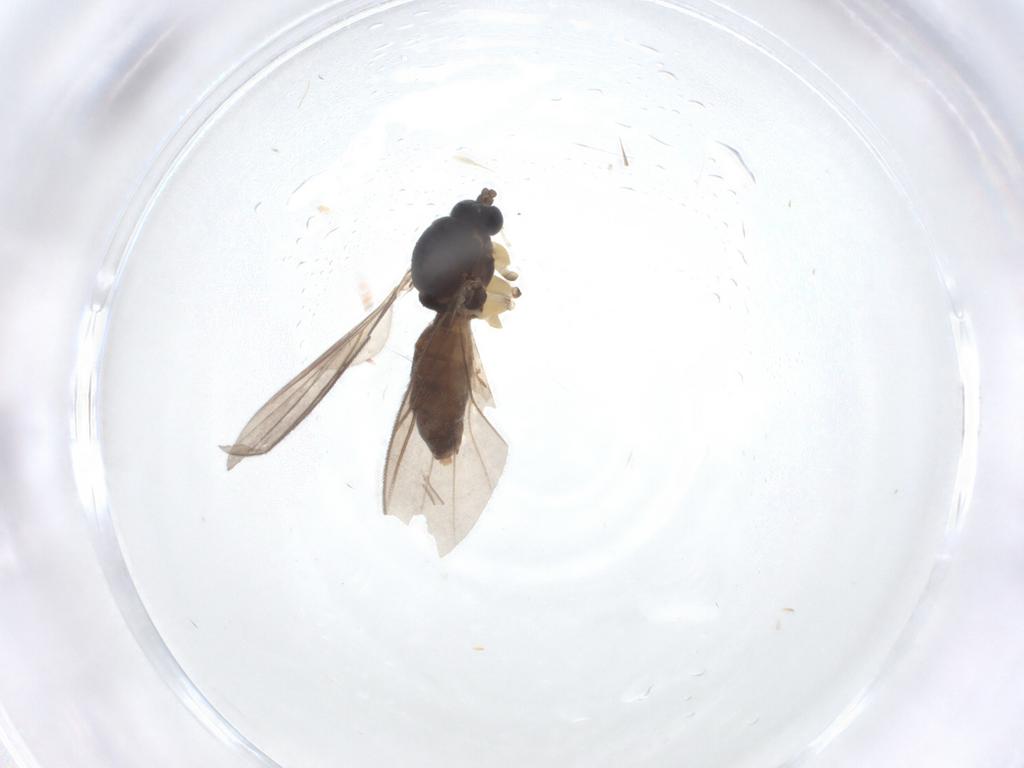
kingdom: Animalia
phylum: Arthropoda
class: Insecta
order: Diptera
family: Mycetophilidae
